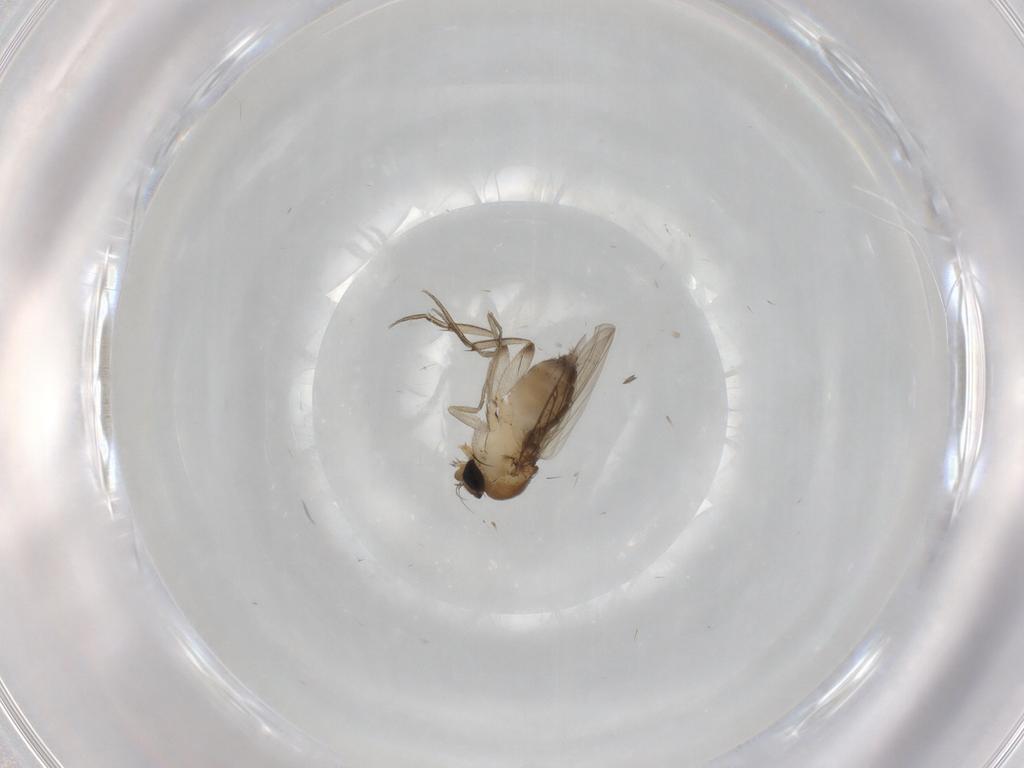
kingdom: Animalia
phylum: Arthropoda
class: Insecta
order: Diptera
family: Phoridae
